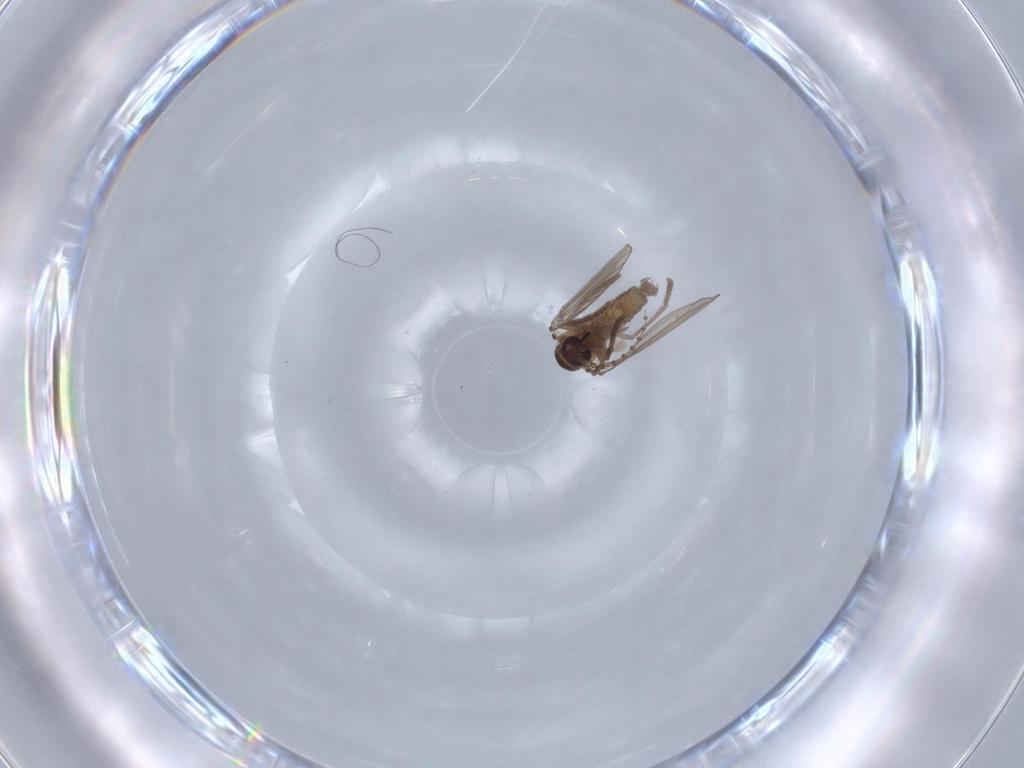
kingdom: Animalia
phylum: Arthropoda
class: Insecta
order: Diptera
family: Psychodidae
